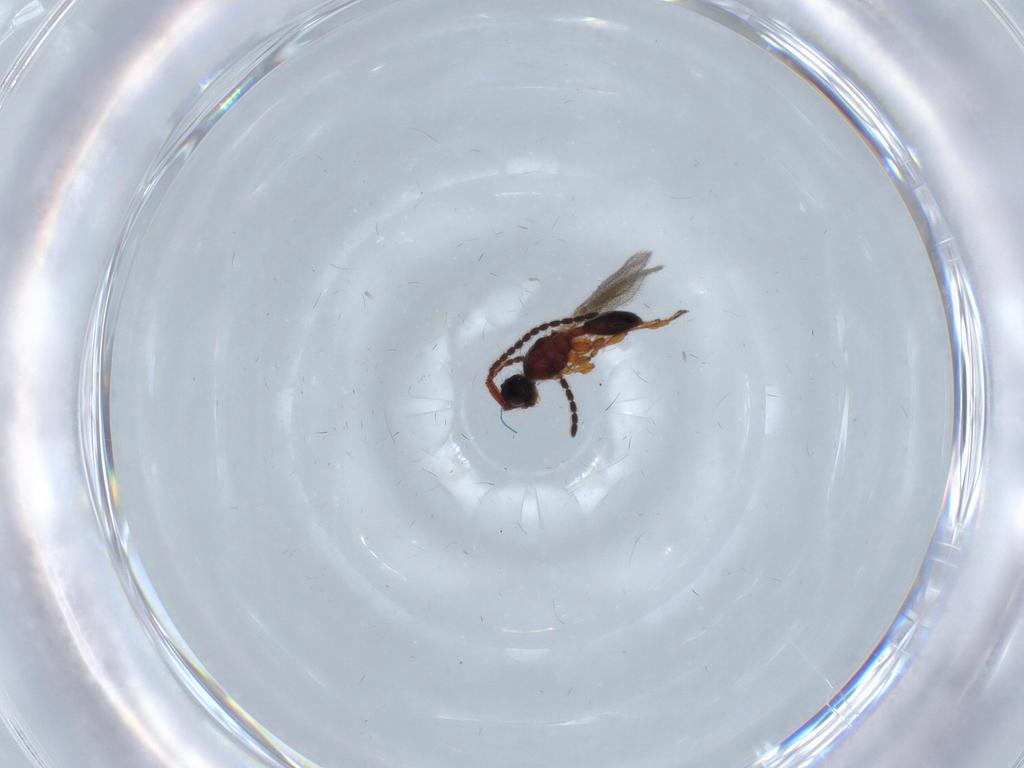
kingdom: Animalia
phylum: Arthropoda
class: Insecta
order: Hymenoptera
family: Diapriidae
